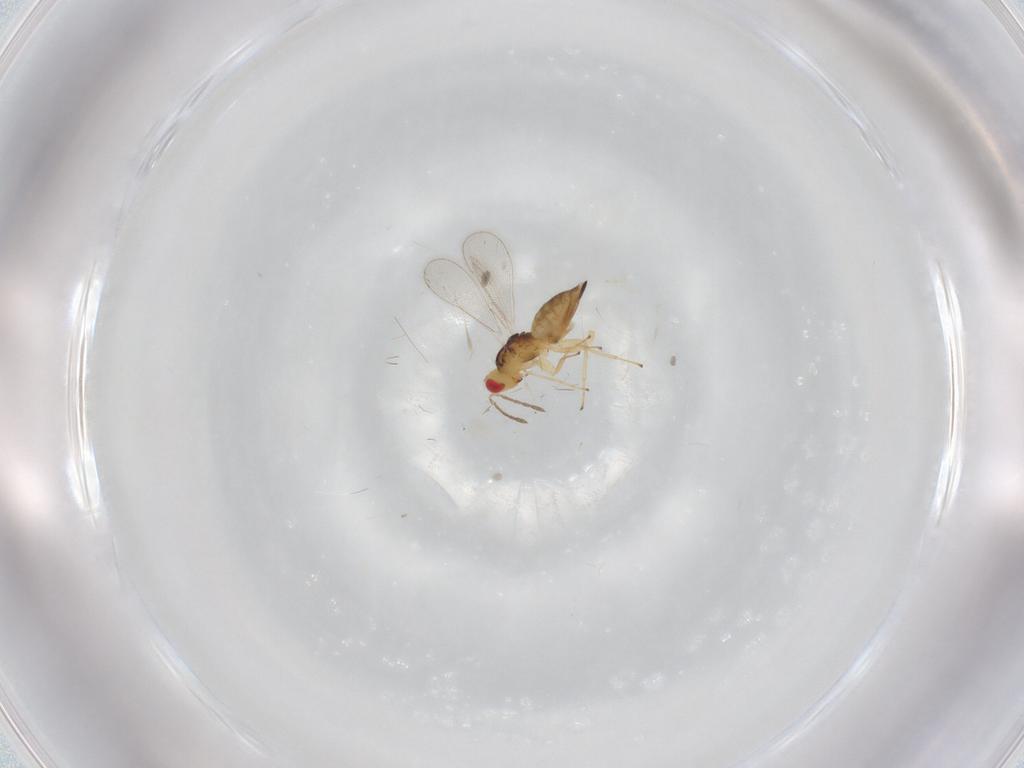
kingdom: Animalia
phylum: Arthropoda
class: Insecta
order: Hymenoptera
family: Eulophidae
